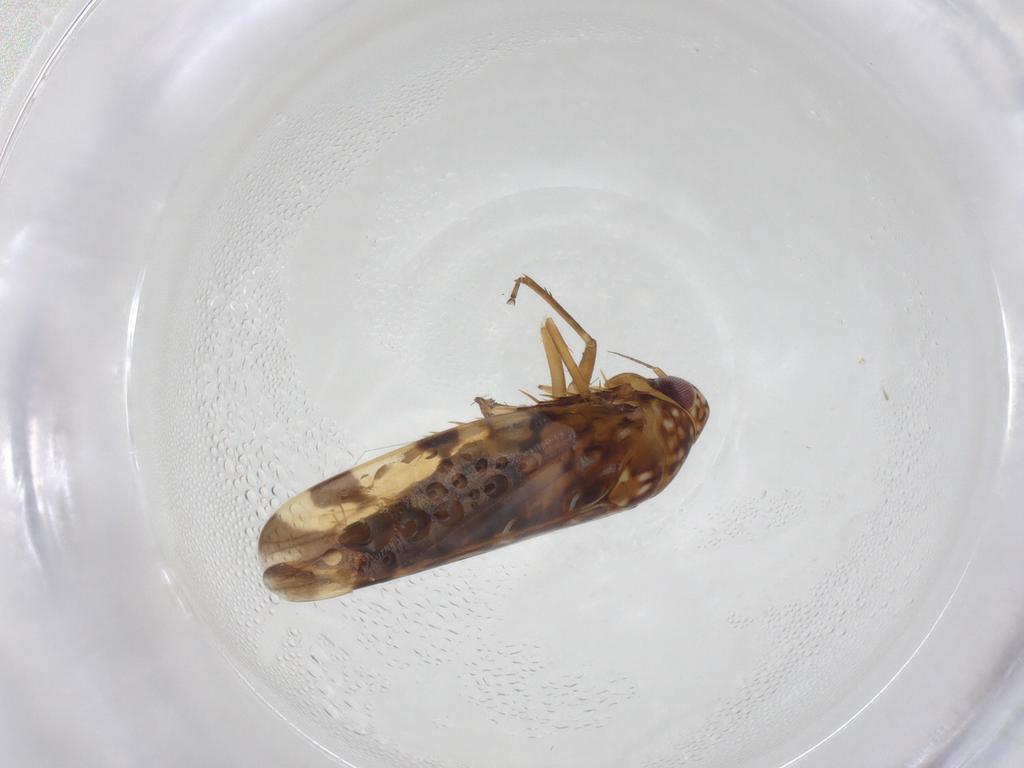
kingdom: Animalia
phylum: Arthropoda
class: Insecta
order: Hemiptera
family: Cicadellidae
